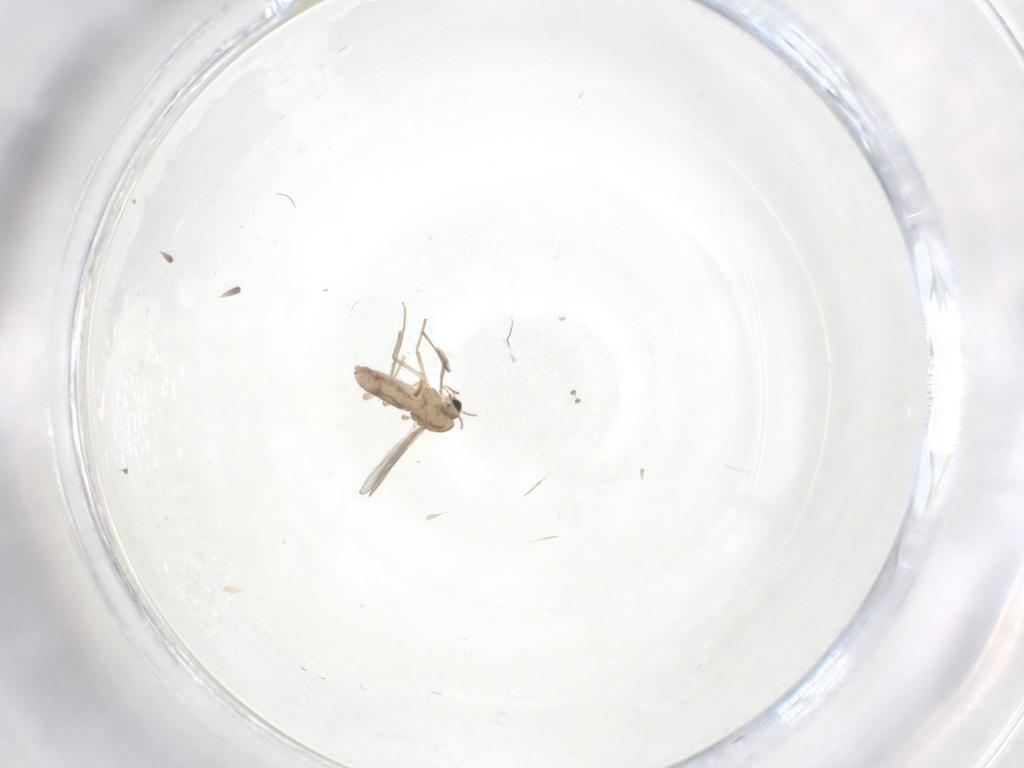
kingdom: Animalia
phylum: Arthropoda
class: Insecta
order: Diptera
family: Chironomidae
